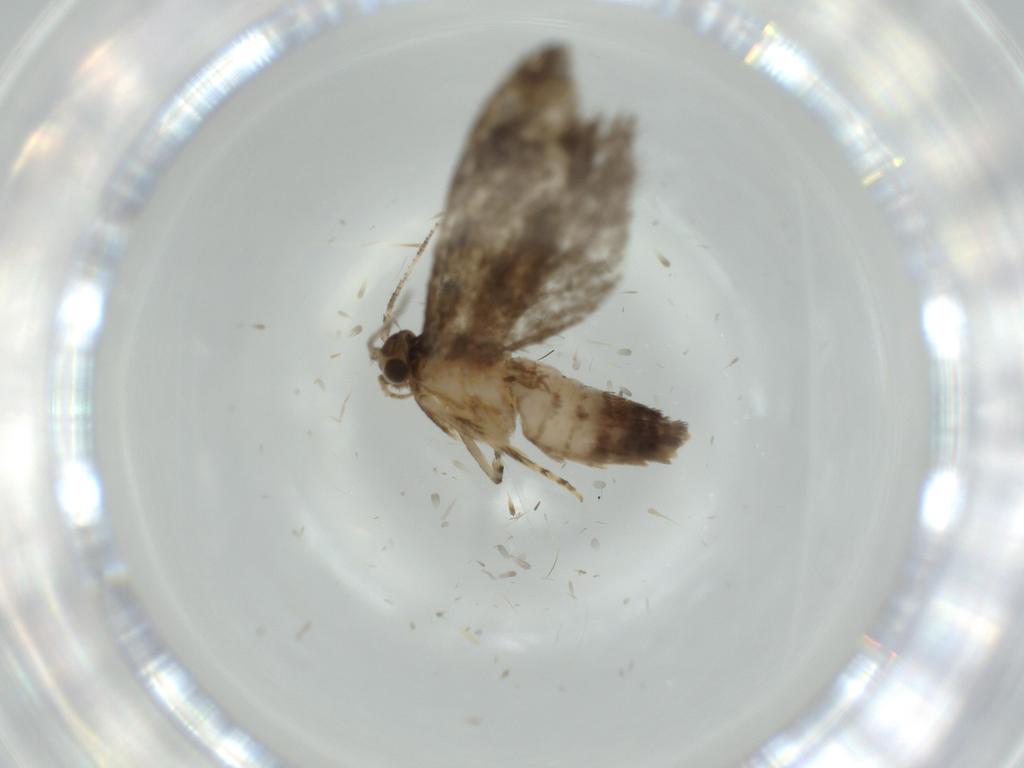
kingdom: Animalia
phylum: Arthropoda
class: Insecta
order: Lepidoptera
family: Tineidae
